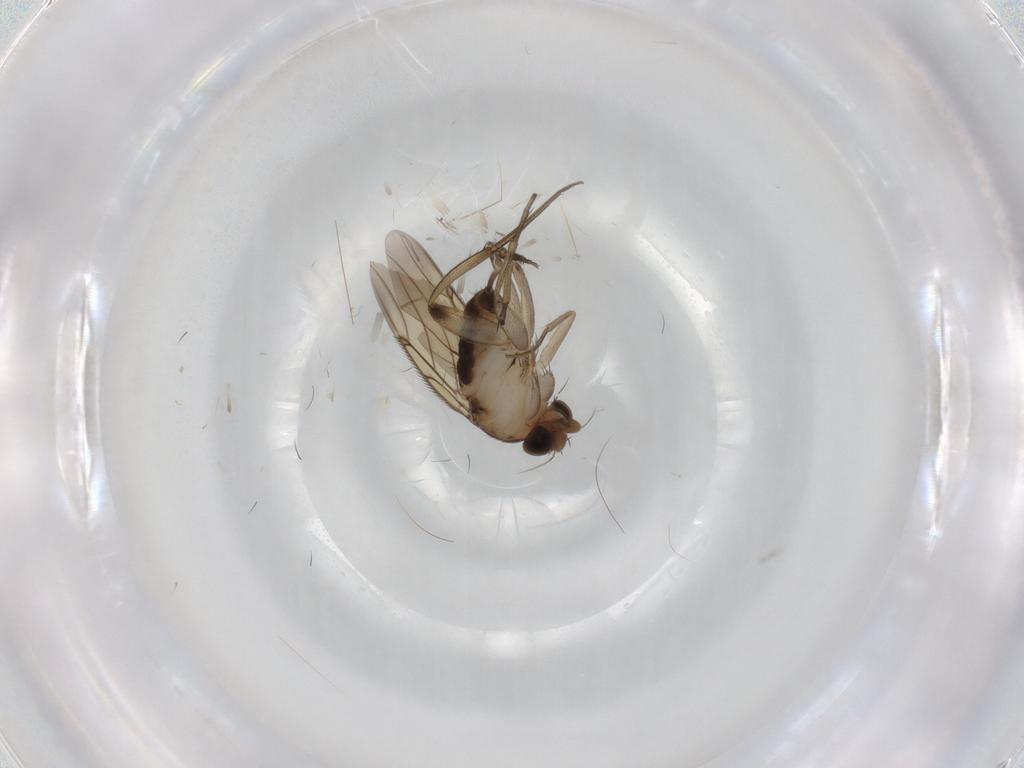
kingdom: Animalia
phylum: Arthropoda
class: Insecta
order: Diptera
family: Phoridae
